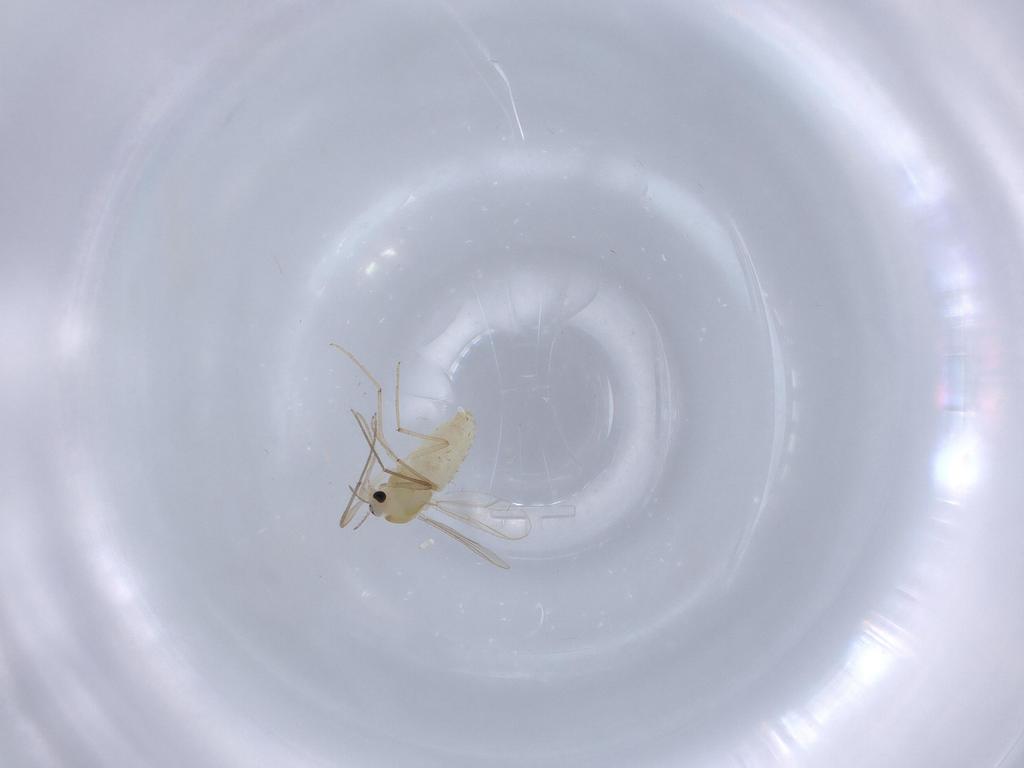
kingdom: Animalia
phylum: Arthropoda
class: Insecta
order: Diptera
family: Chironomidae
